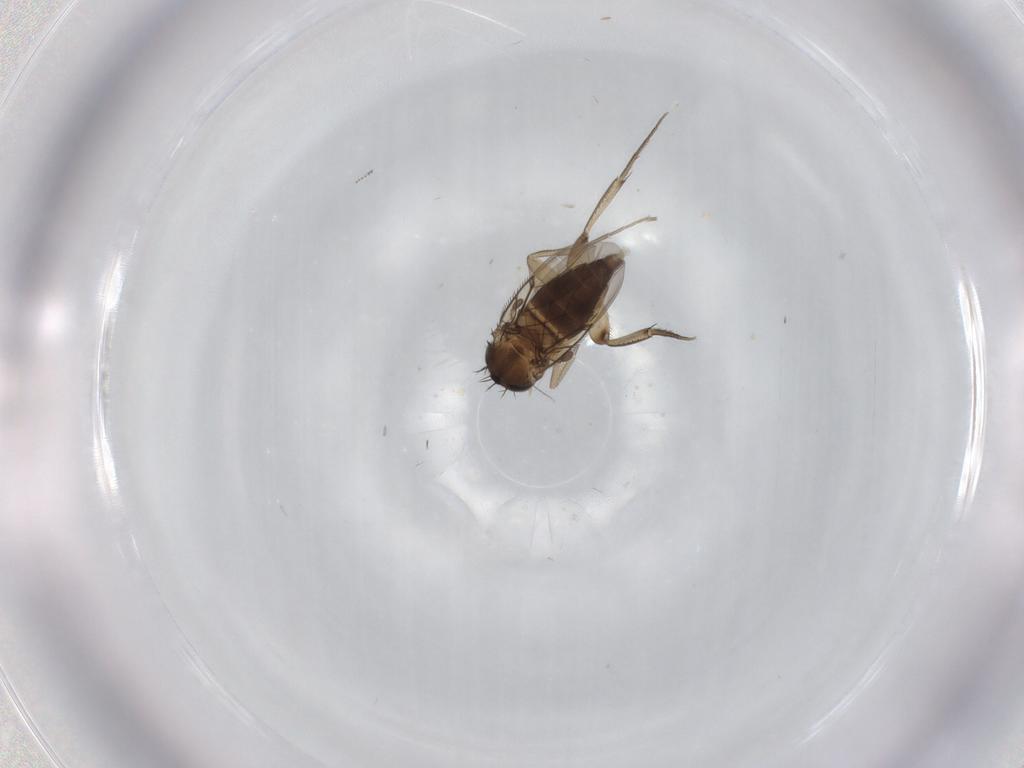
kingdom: Animalia
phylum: Arthropoda
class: Insecta
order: Diptera
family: Phoridae
